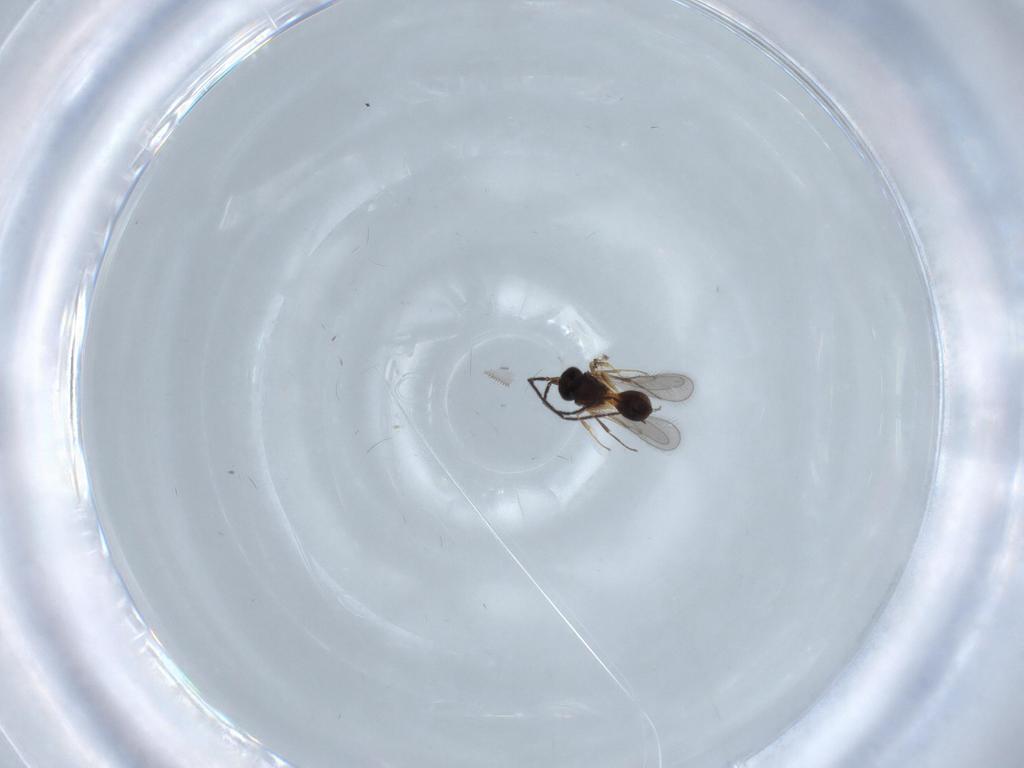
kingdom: Animalia
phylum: Arthropoda
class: Insecta
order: Hymenoptera
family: Scelionidae
